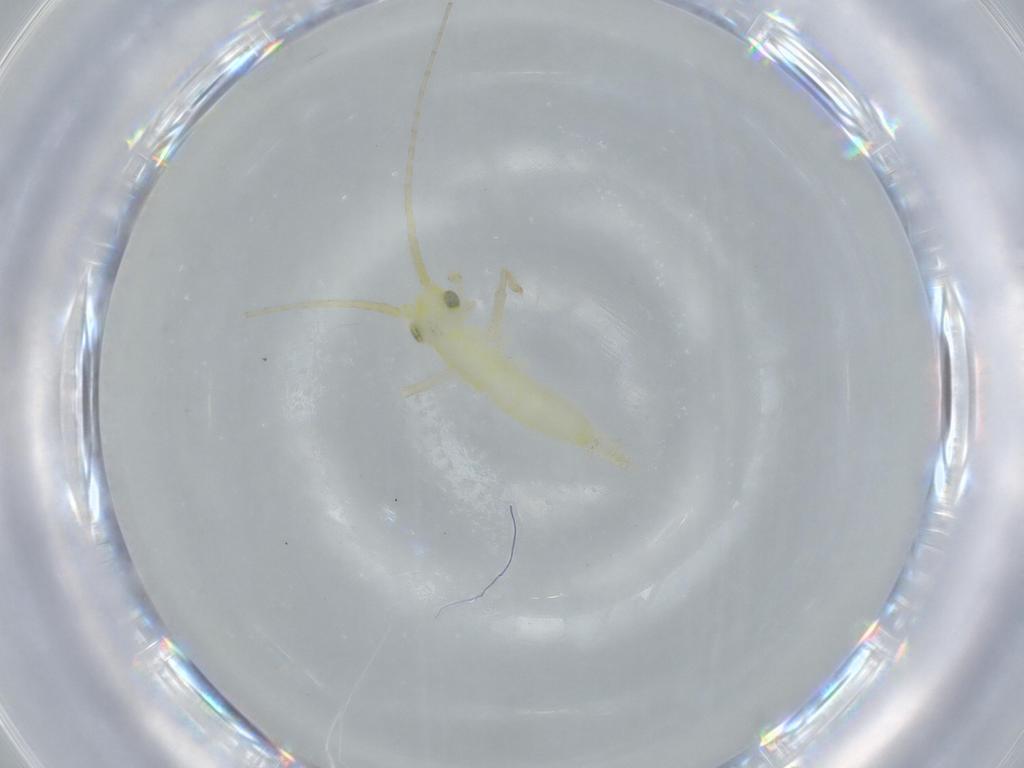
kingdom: Animalia
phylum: Arthropoda
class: Insecta
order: Orthoptera
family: Trigonidiidae
